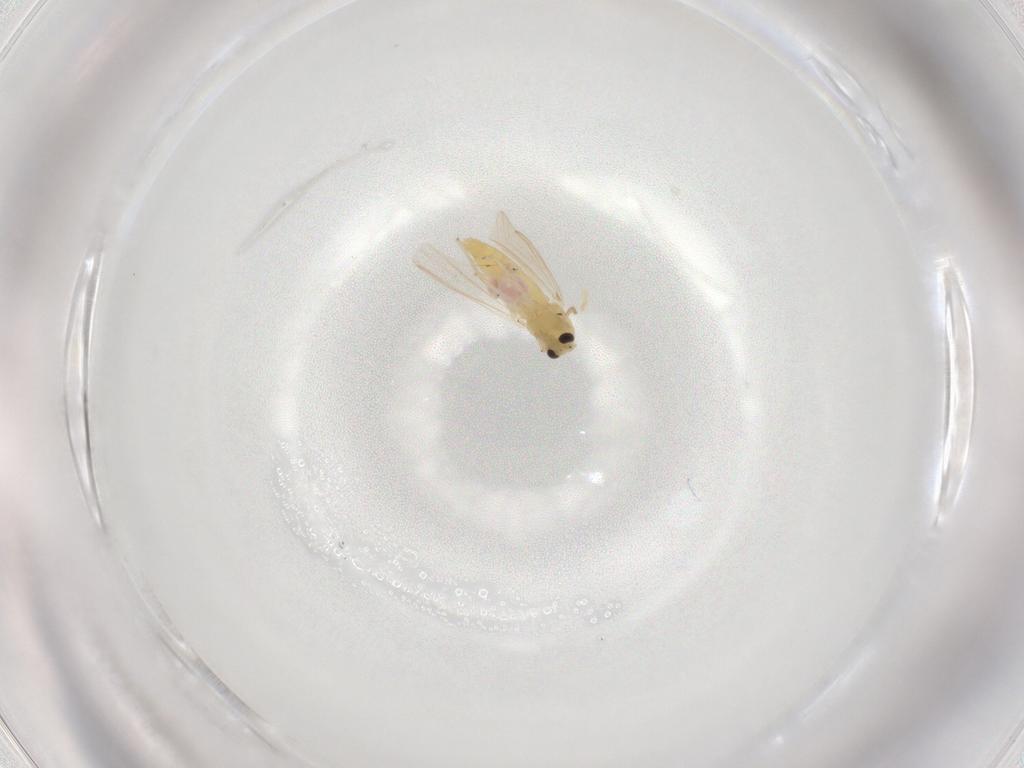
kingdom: Animalia
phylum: Arthropoda
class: Insecta
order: Diptera
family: Chironomidae
